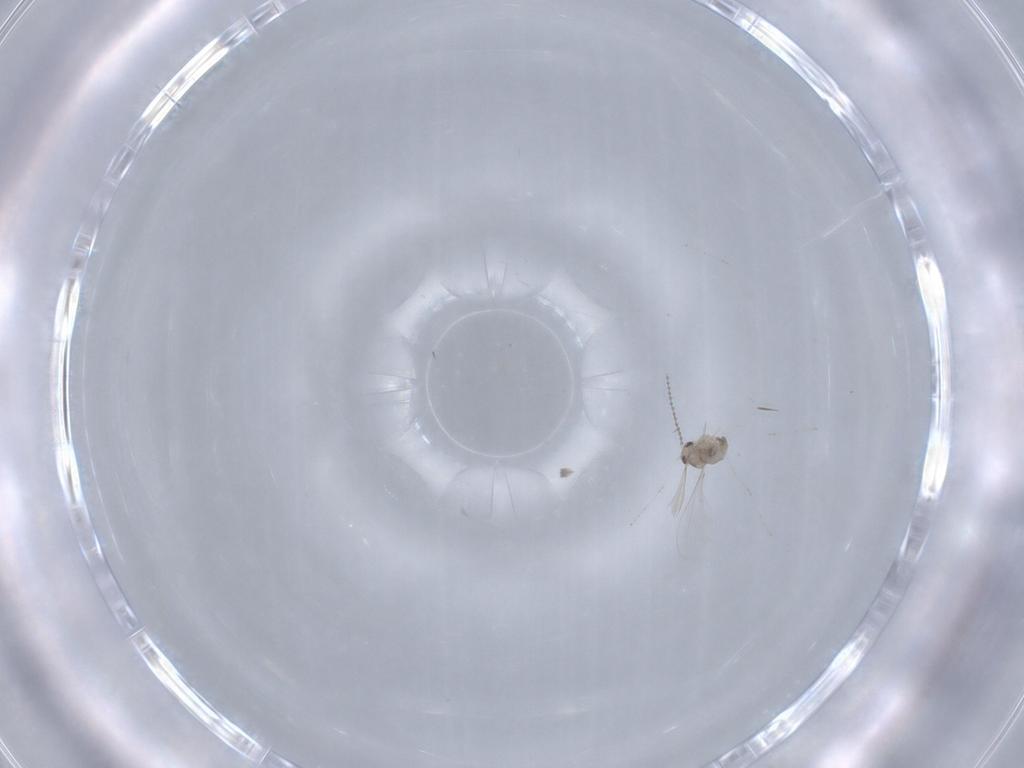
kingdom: Animalia
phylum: Arthropoda
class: Insecta
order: Diptera
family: Cecidomyiidae
